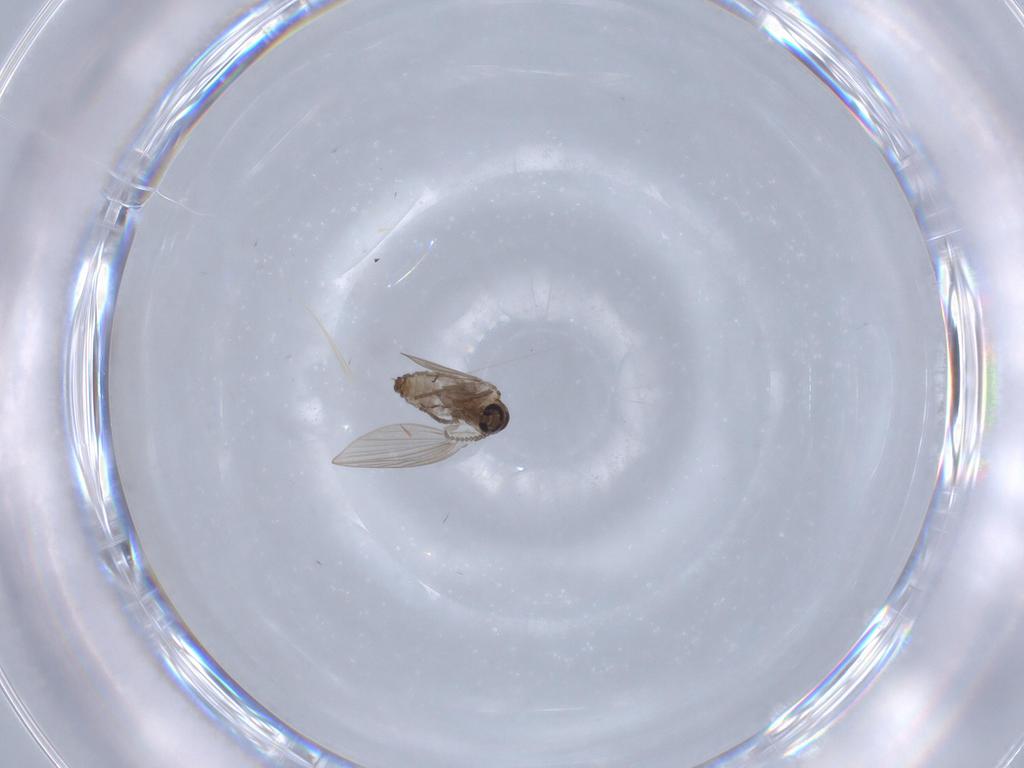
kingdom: Animalia
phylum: Arthropoda
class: Insecta
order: Diptera
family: Psychodidae
